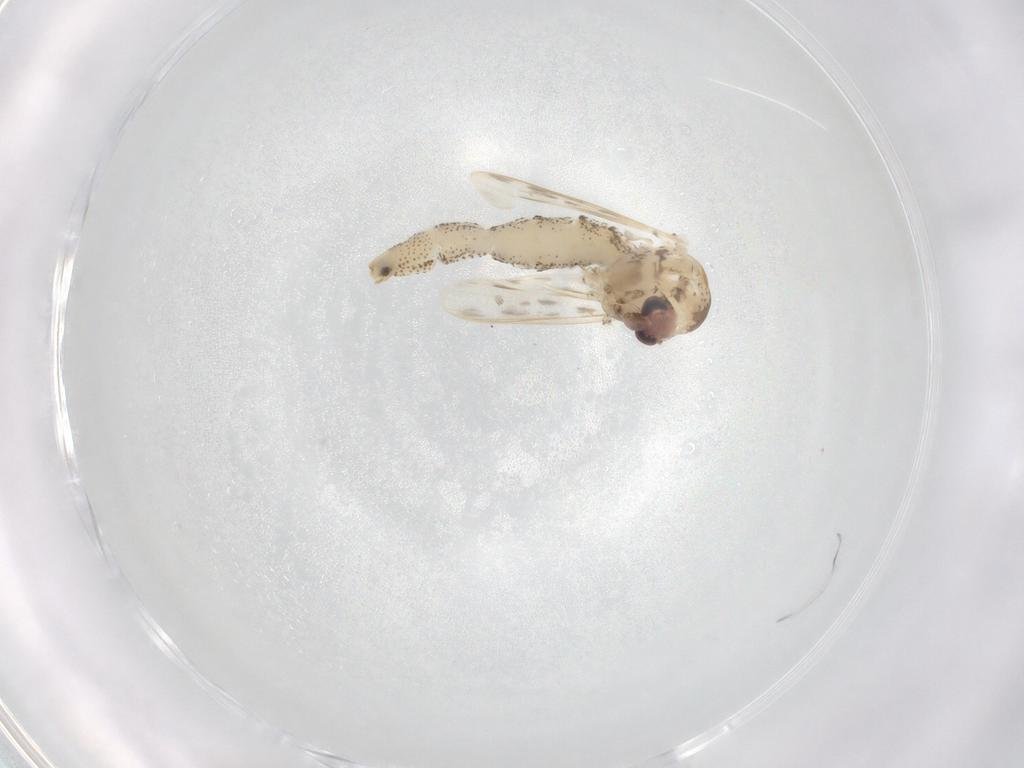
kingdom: Animalia
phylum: Arthropoda
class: Insecta
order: Diptera
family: Chaoboridae
